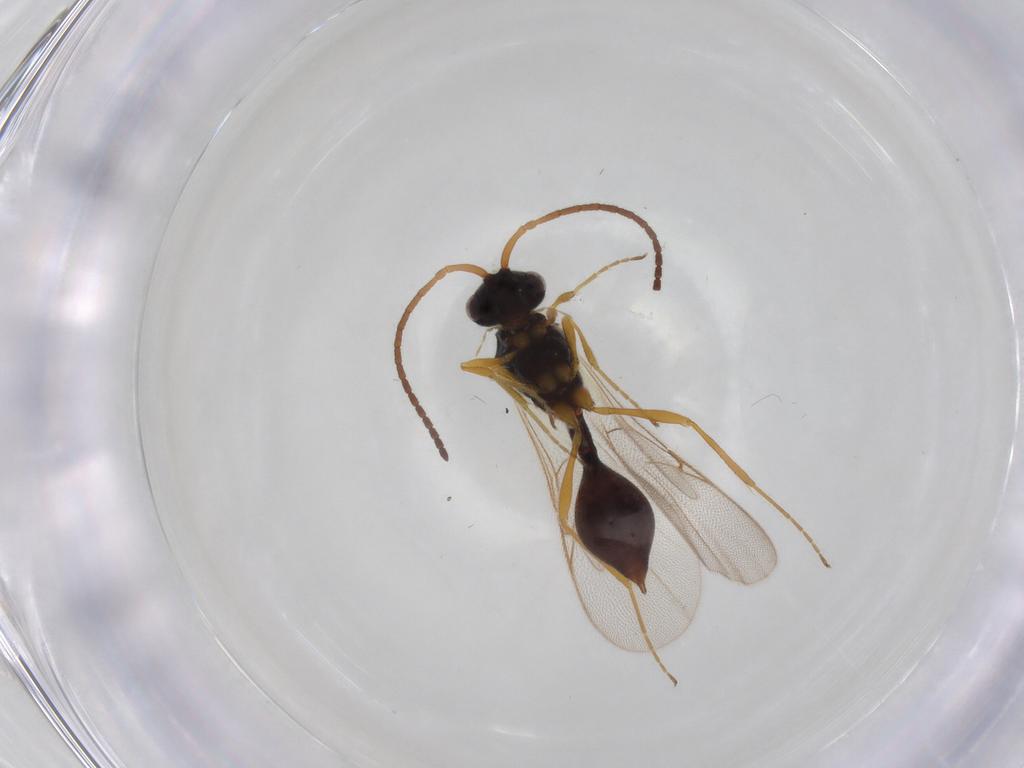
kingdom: Animalia
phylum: Arthropoda
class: Insecta
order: Hymenoptera
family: Diapriidae
